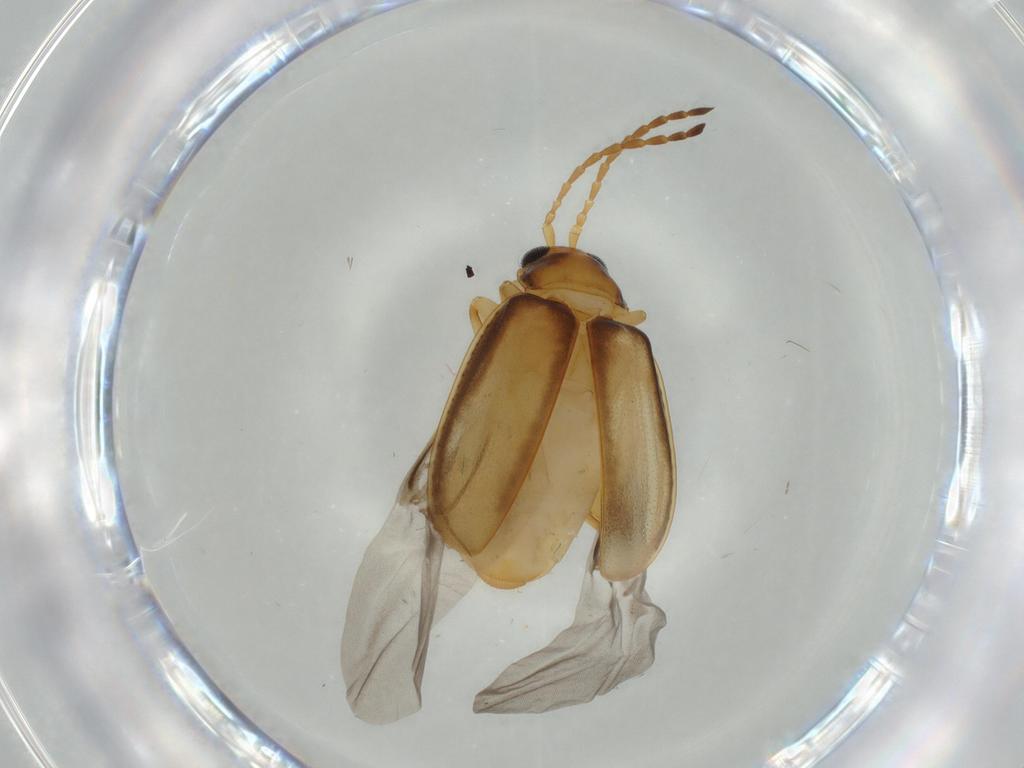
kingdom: Animalia
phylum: Arthropoda
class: Insecta
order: Coleoptera
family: Chrysomelidae
